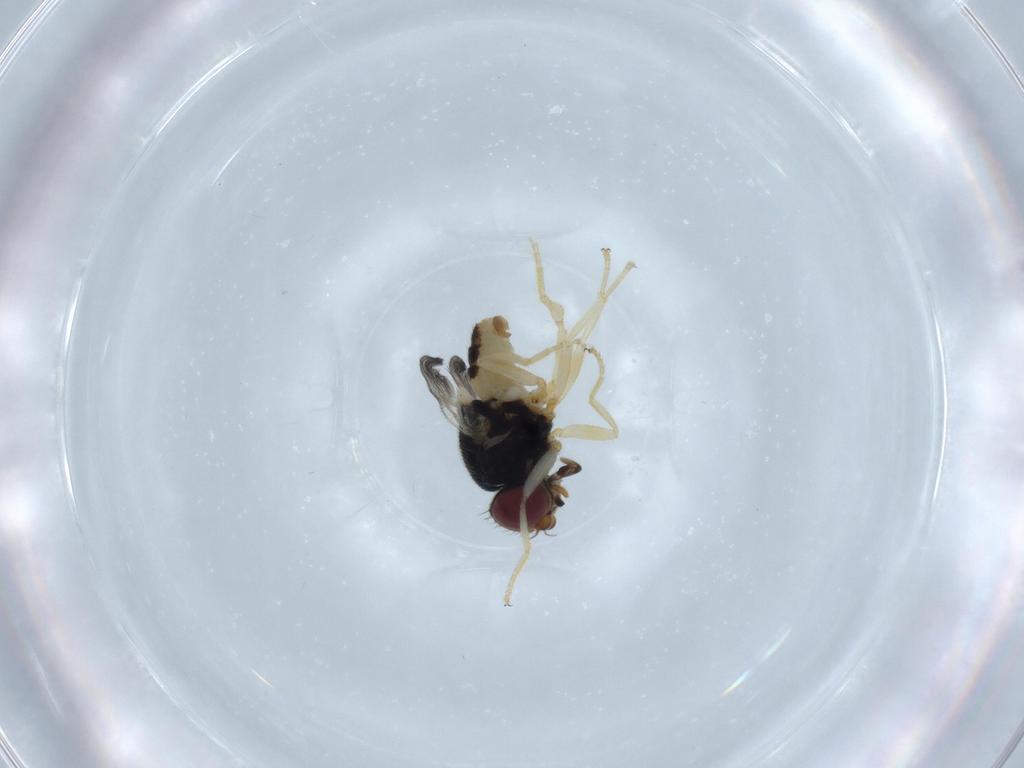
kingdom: Animalia
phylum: Arthropoda
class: Insecta
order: Diptera
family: Chloropidae
